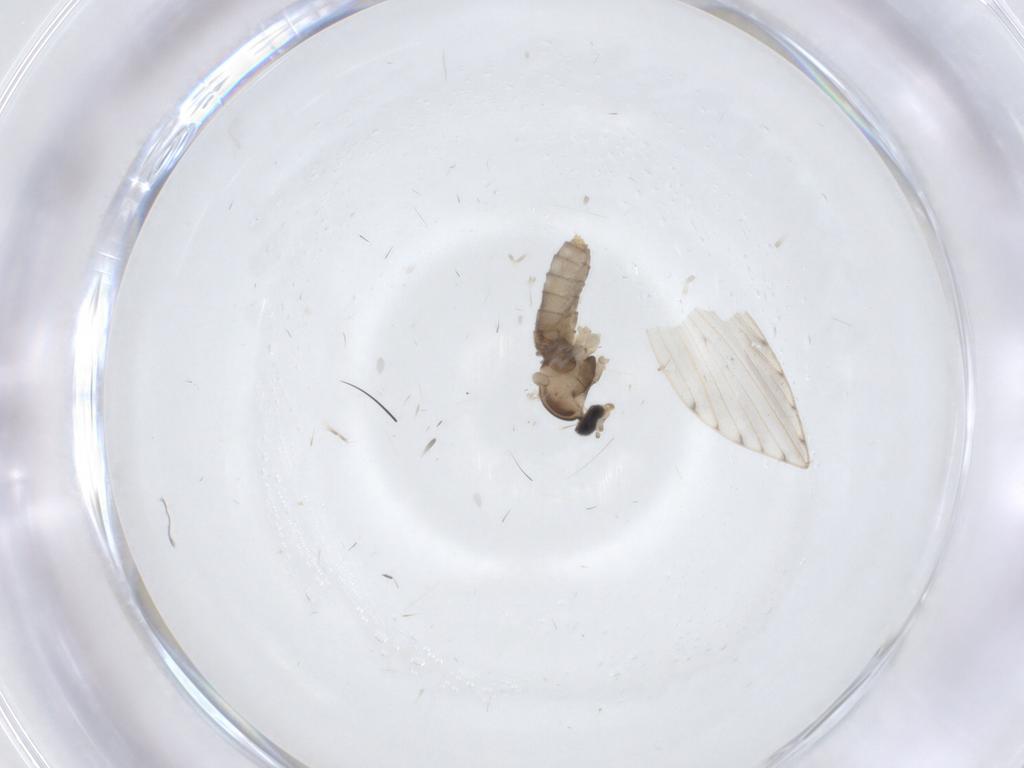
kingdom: Animalia
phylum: Arthropoda
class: Insecta
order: Diptera
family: Cecidomyiidae
